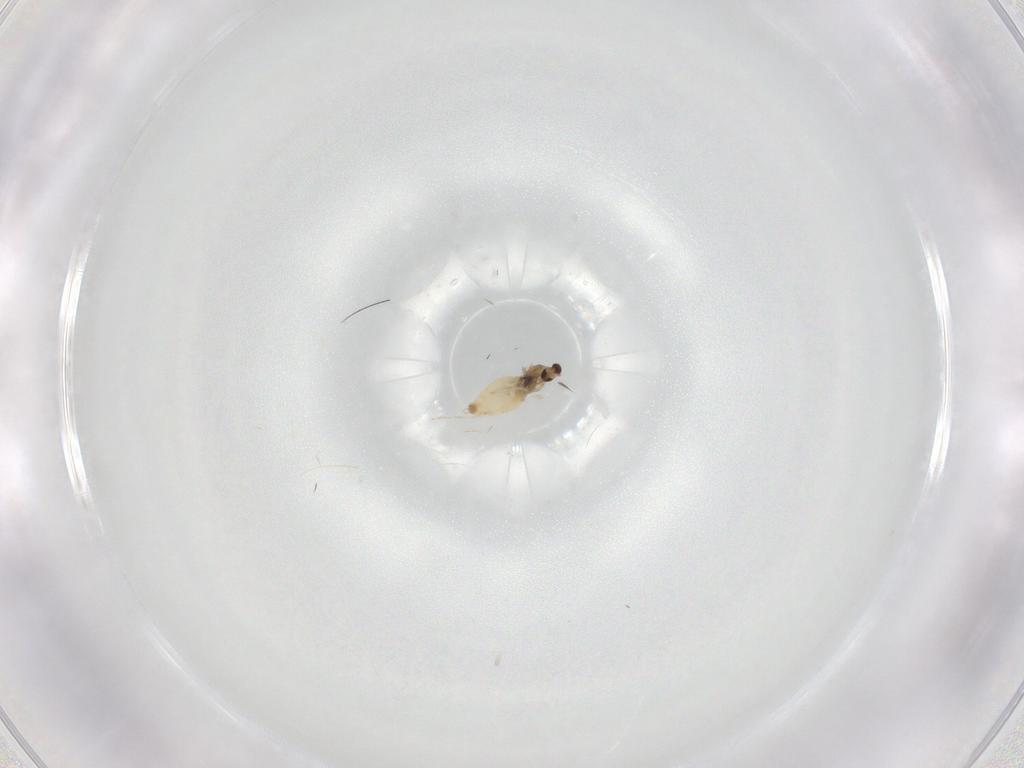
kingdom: Animalia
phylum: Arthropoda
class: Insecta
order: Diptera
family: Cecidomyiidae
